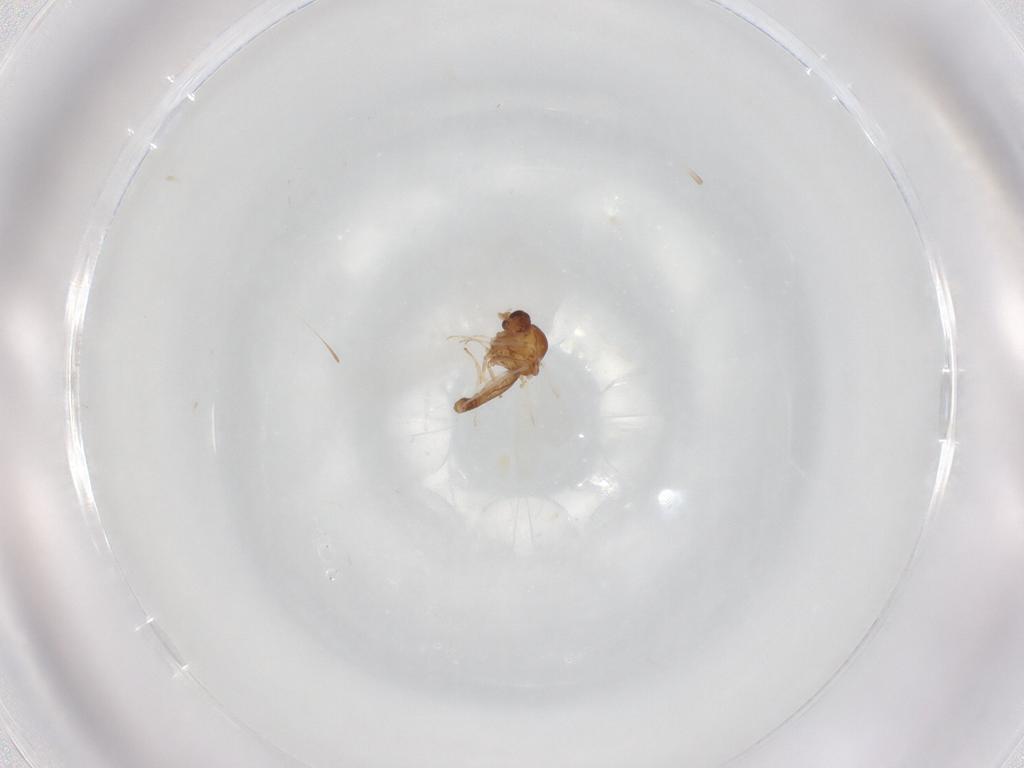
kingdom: Animalia
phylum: Arthropoda
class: Insecta
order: Diptera
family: Ceratopogonidae
